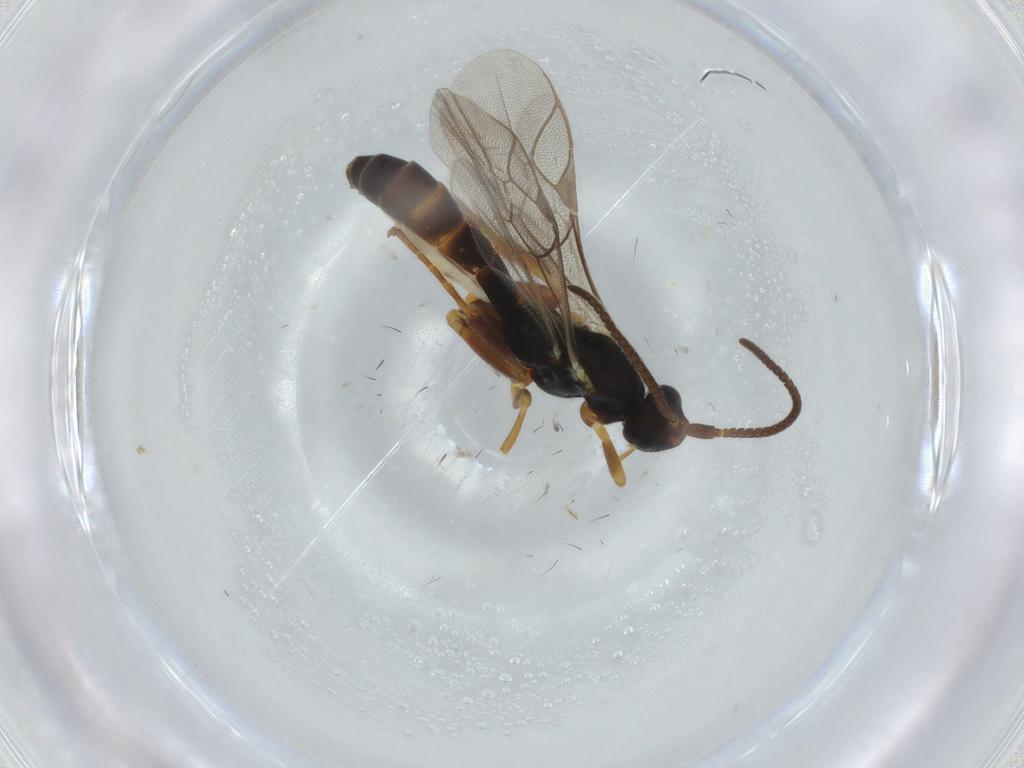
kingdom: Animalia
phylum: Arthropoda
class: Insecta
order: Hymenoptera
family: Ichneumonidae
